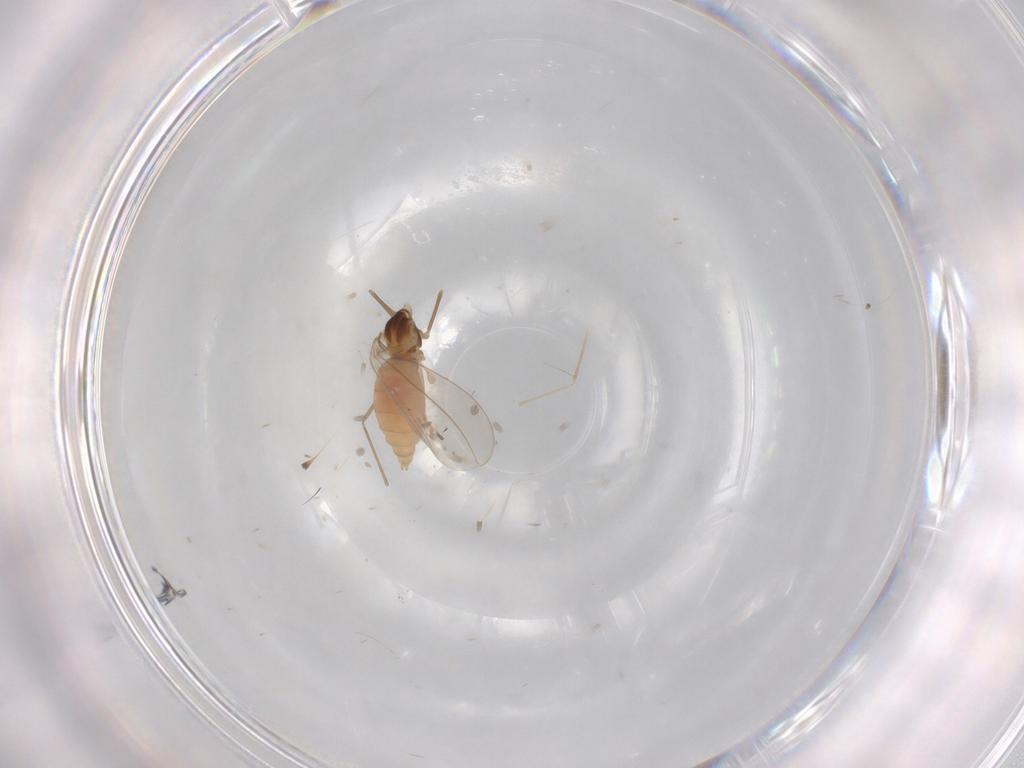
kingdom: Animalia
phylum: Arthropoda
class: Insecta
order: Diptera
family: Cecidomyiidae
